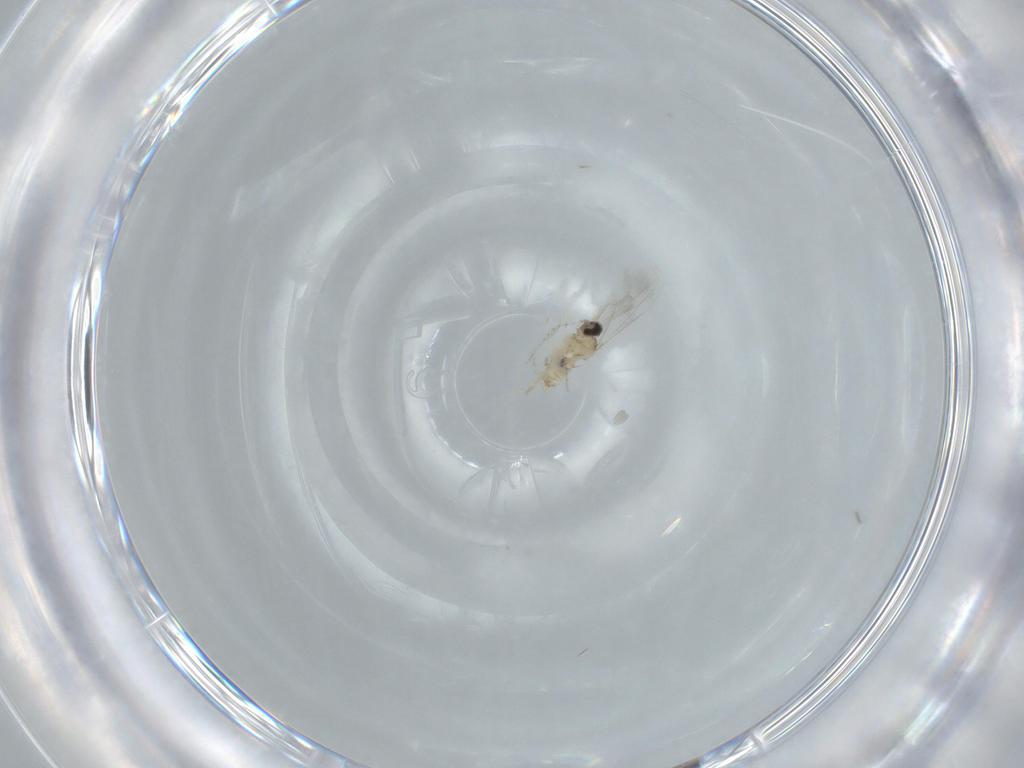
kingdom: Animalia
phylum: Arthropoda
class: Insecta
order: Diptera
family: Cecidomyiidae
